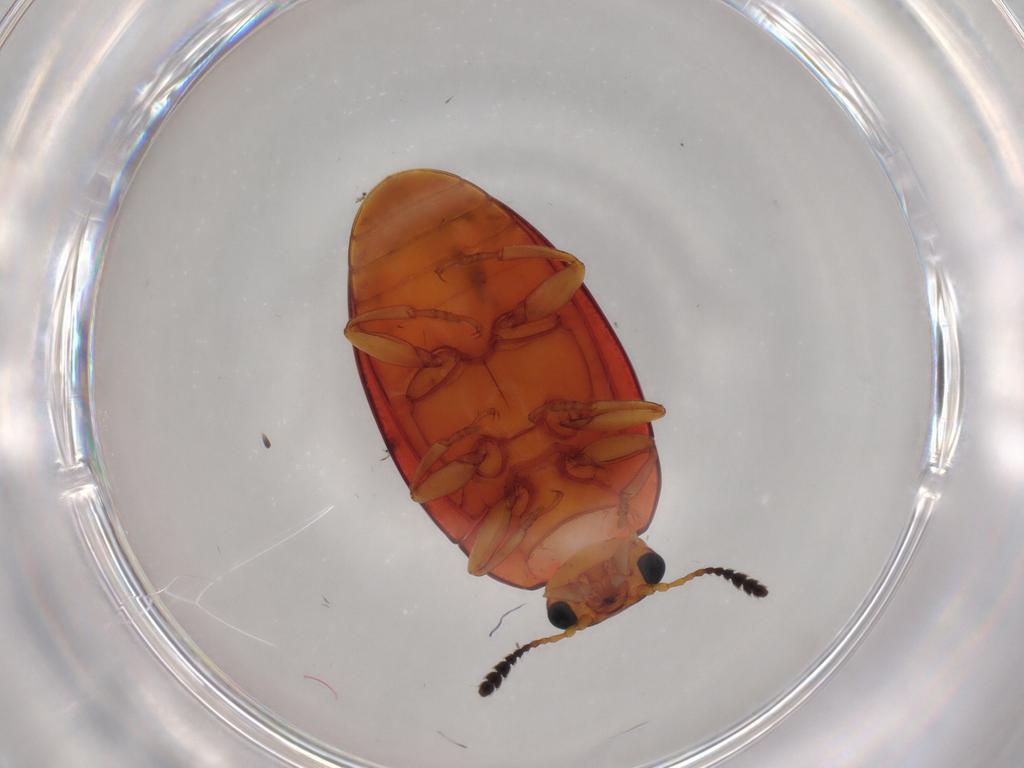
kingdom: Animalia
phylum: Arthropoda
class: Insecta
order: Coleoptera
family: Erotylidae
